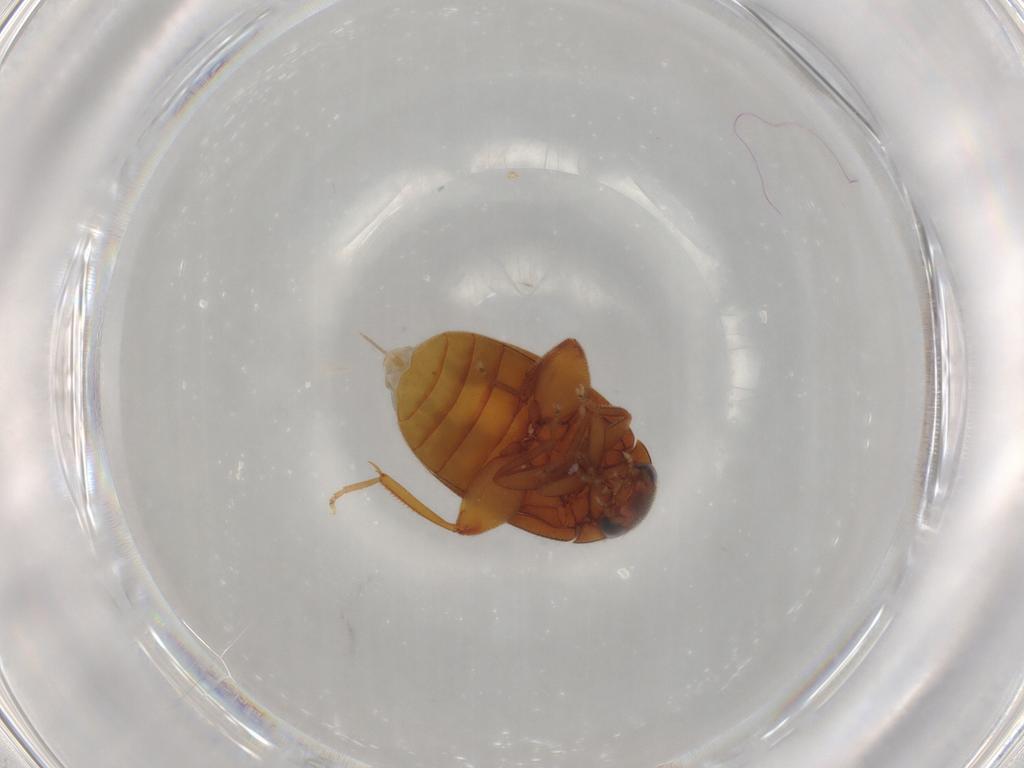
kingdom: Animalia
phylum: Arthropoda
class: Insecta
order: Coleoptera
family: Scirtidae
